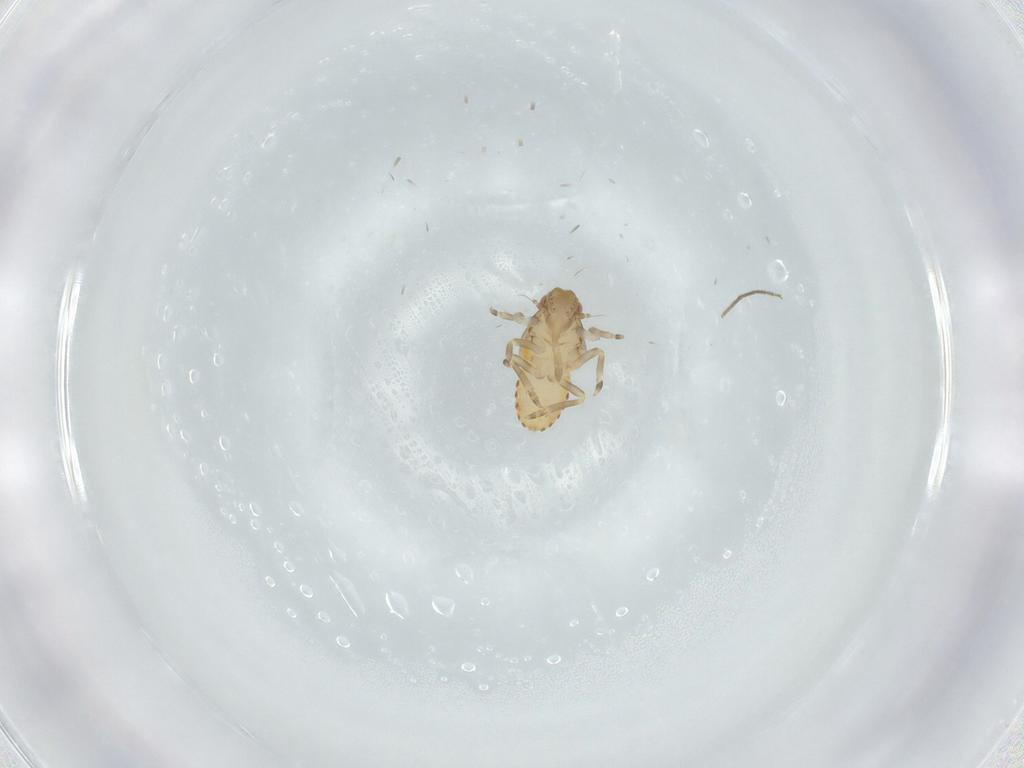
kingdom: Animalia
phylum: Arthropoda
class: Insecta
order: Hemiptera
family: Flatidae
